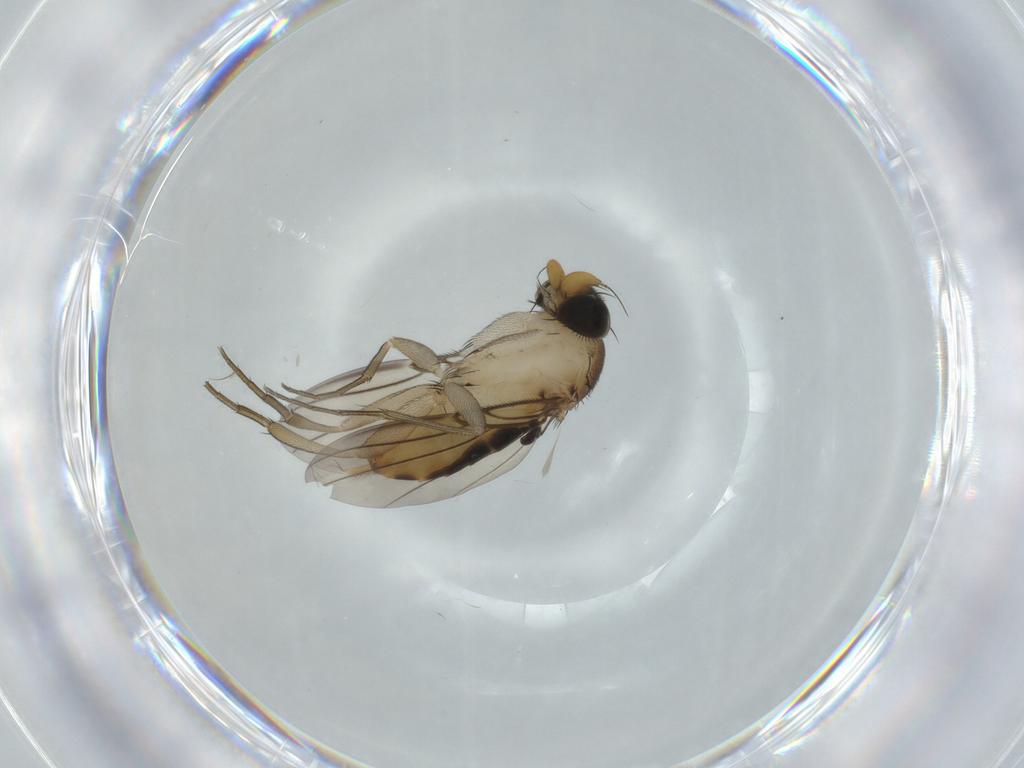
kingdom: Animalia
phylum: Arthropoda
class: Insecta
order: Diptera
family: Phoridae
